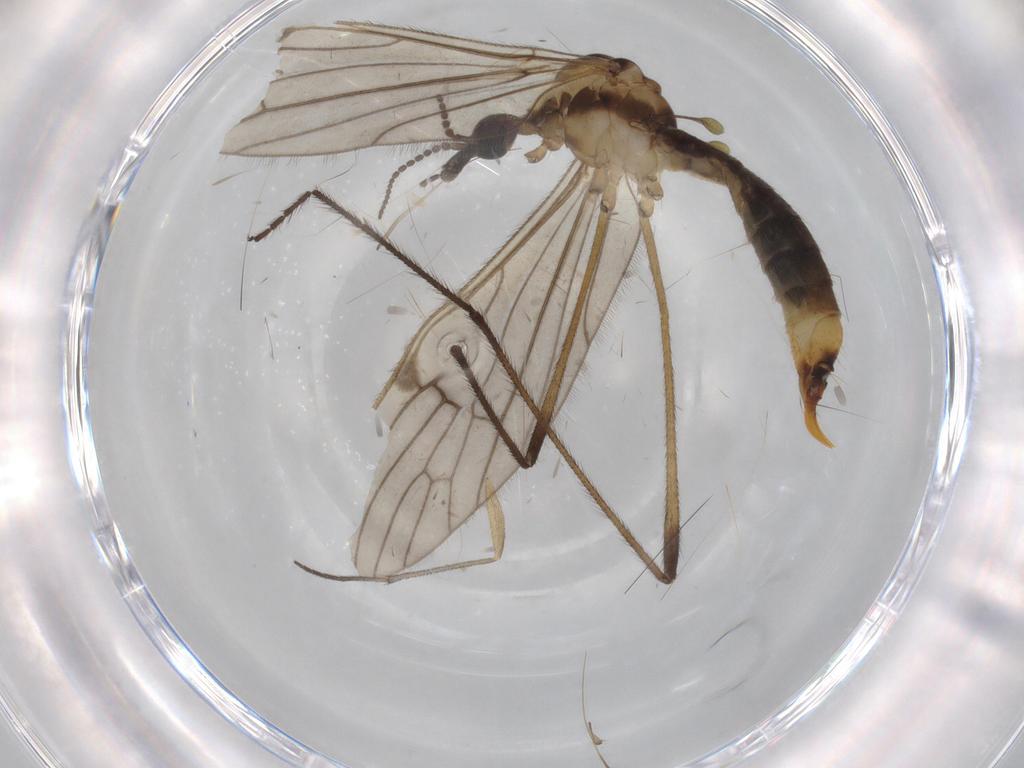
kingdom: Animalia
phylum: Arthropoda
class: Insecta
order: Diptera
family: Limoniidae
